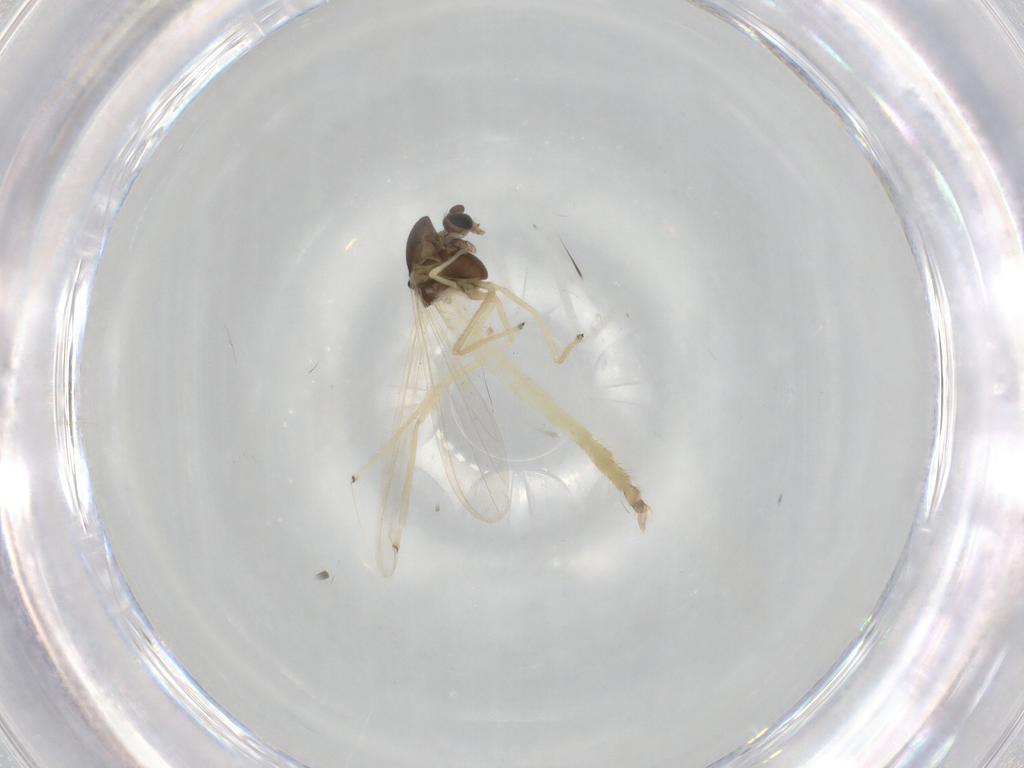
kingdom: Animalia
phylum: Arthropoda
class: Insecta
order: Diptera
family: Chironomidae
